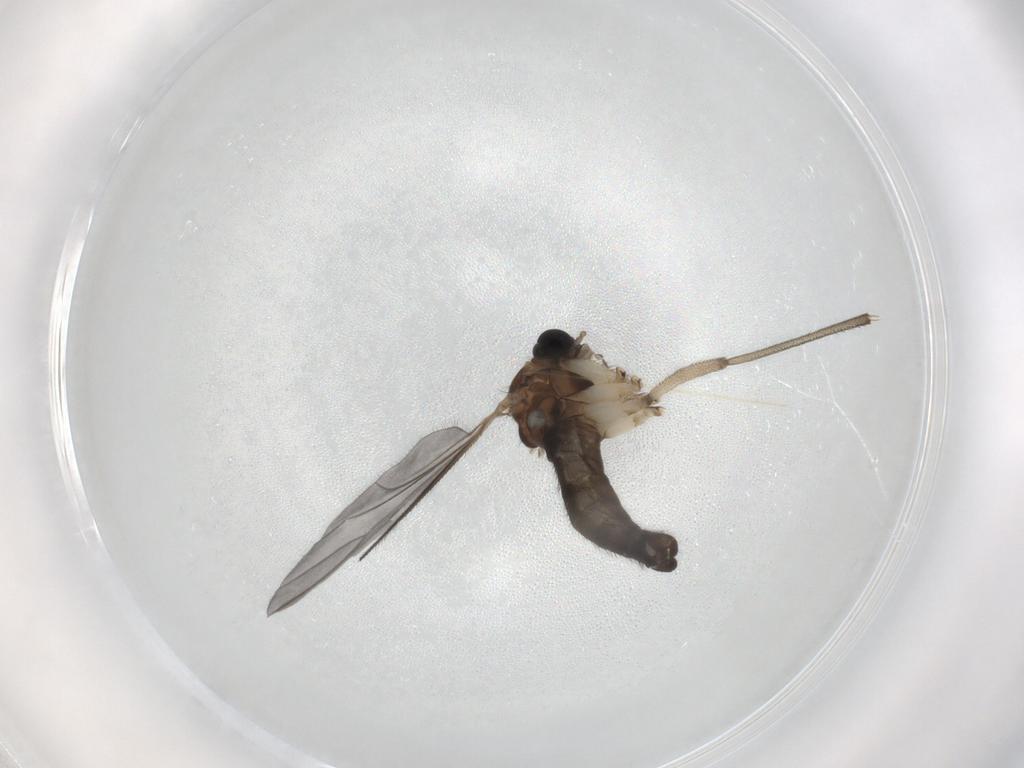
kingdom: Animalia
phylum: Arthropoda
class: Insecta
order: Diptera
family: Sciaridae
